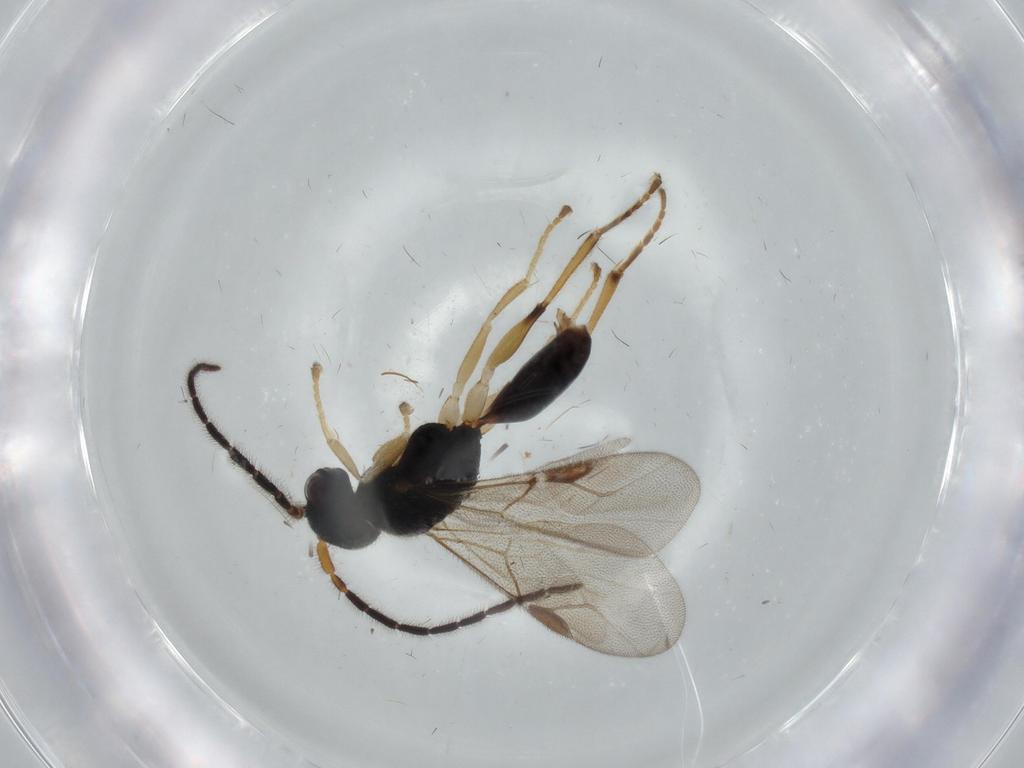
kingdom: Animalia
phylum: Arthropoda
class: Insecta
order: Hymenoptera
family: Dryinidae
